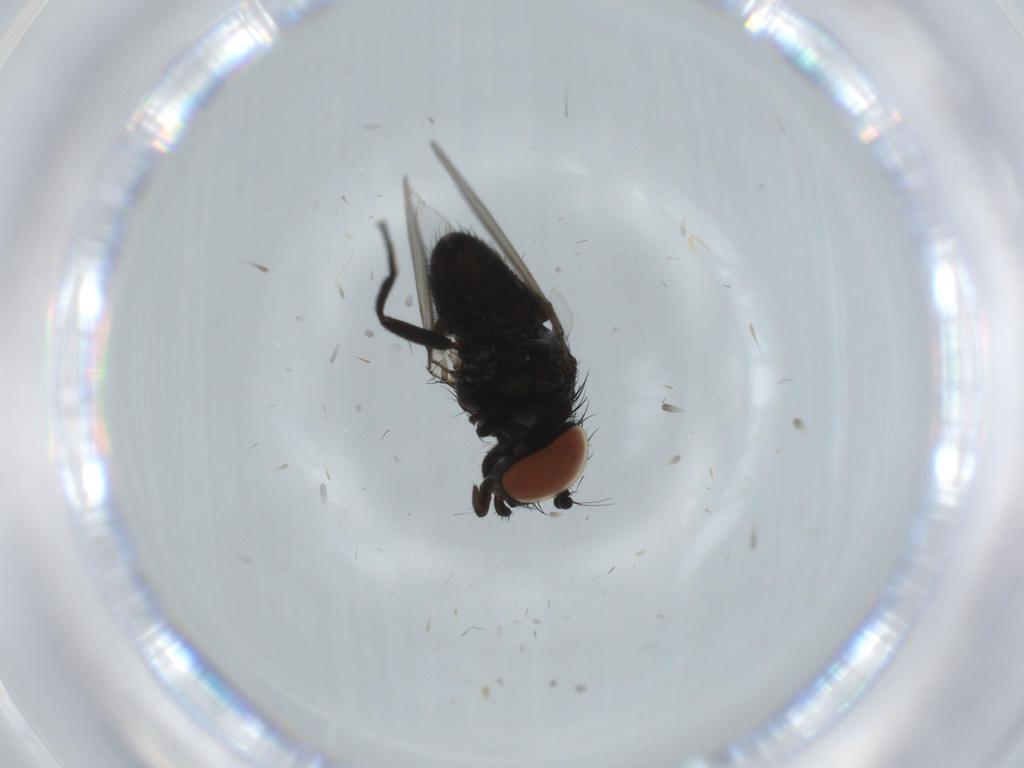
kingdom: Animalia
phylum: Arthropoda
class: Insecta
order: Diptera
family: Milichiidae
